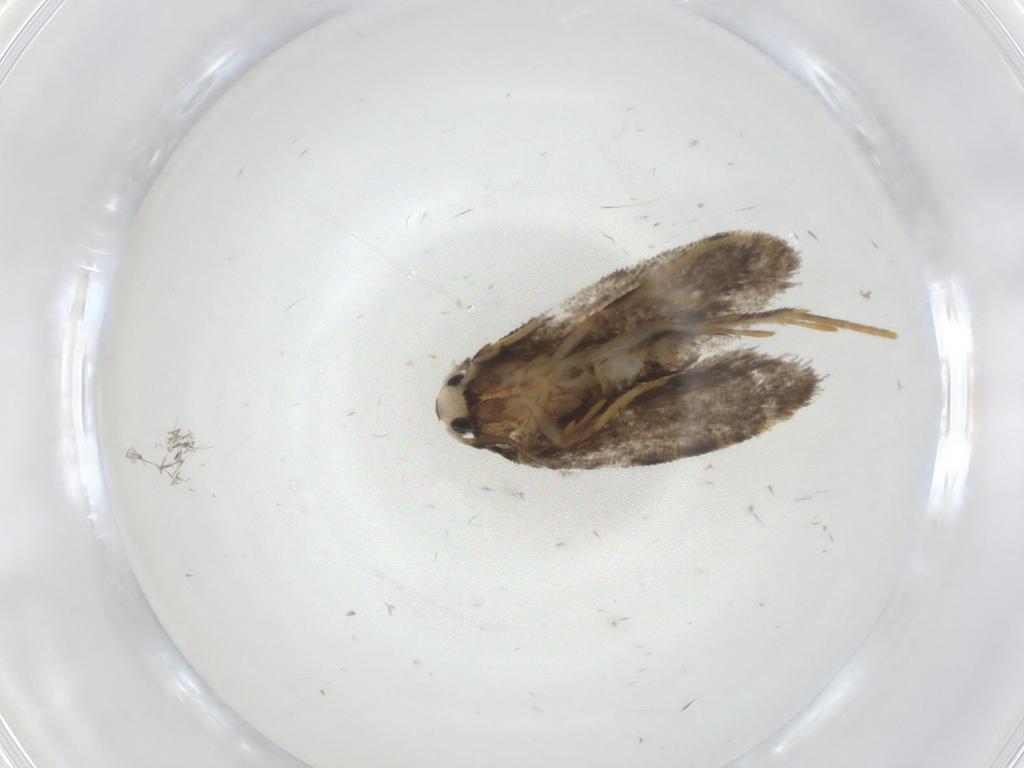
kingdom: Animalia
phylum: Arthropoda
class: Insecta
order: Lepidoptera
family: Psychidae
